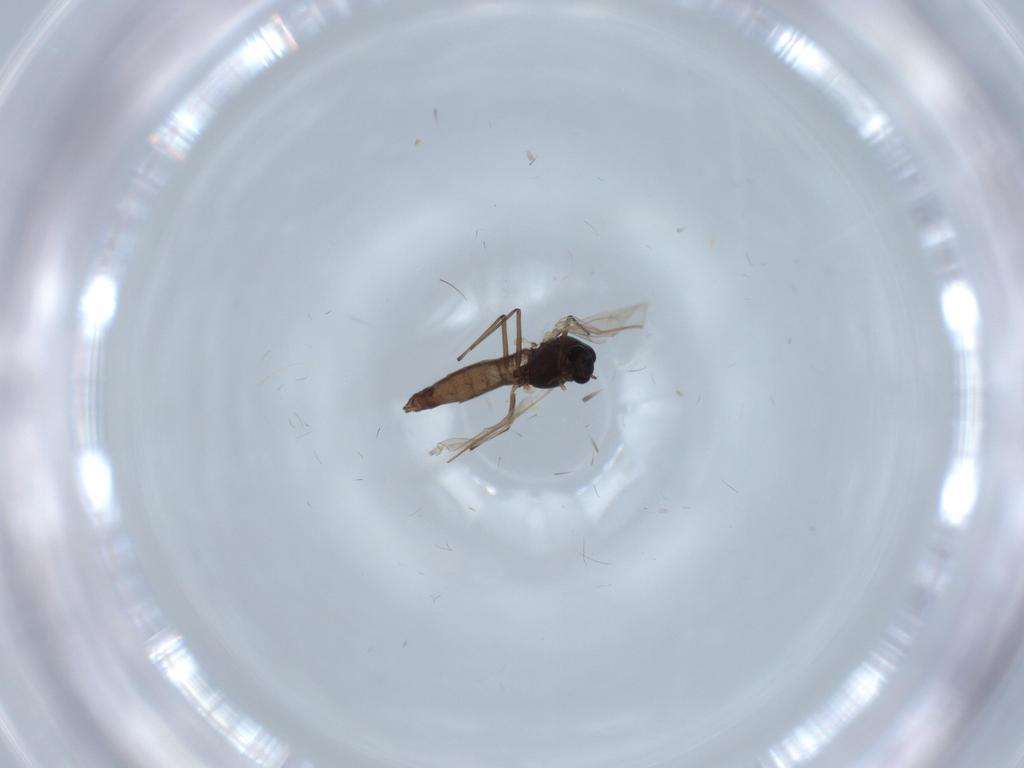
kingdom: Animalia
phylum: Arthropoda
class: Insecta
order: Diptera
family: Chironomidae
